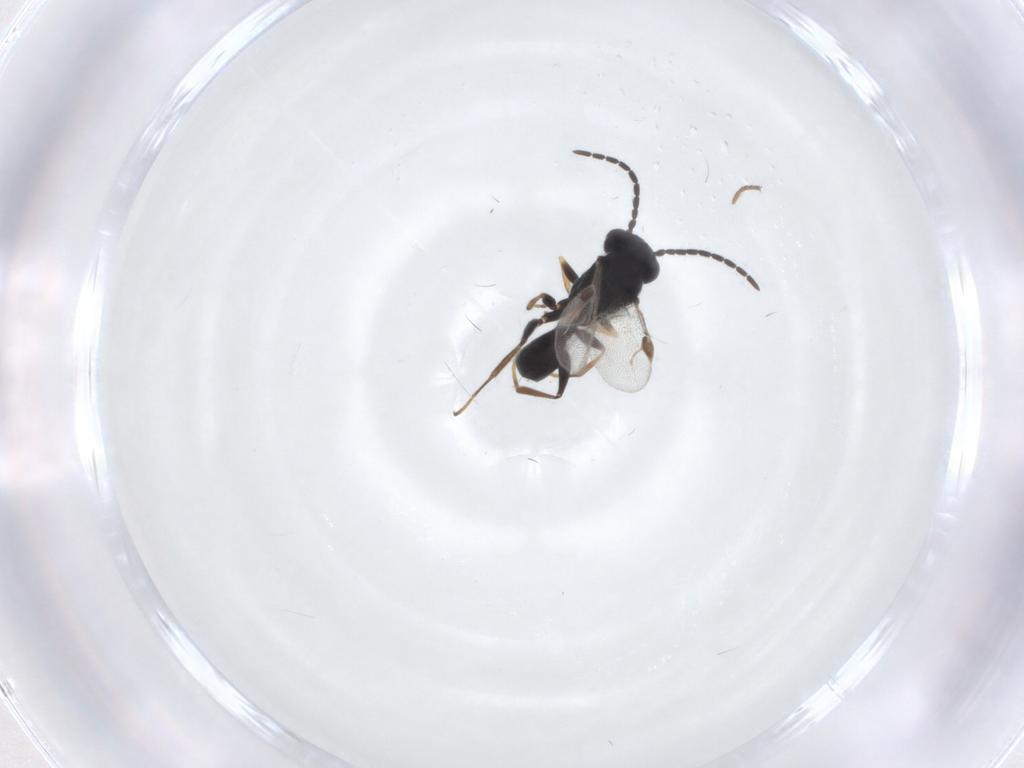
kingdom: Animalia
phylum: Arthropoda
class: Insecta
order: Hymenoptera
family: Dryinidae
